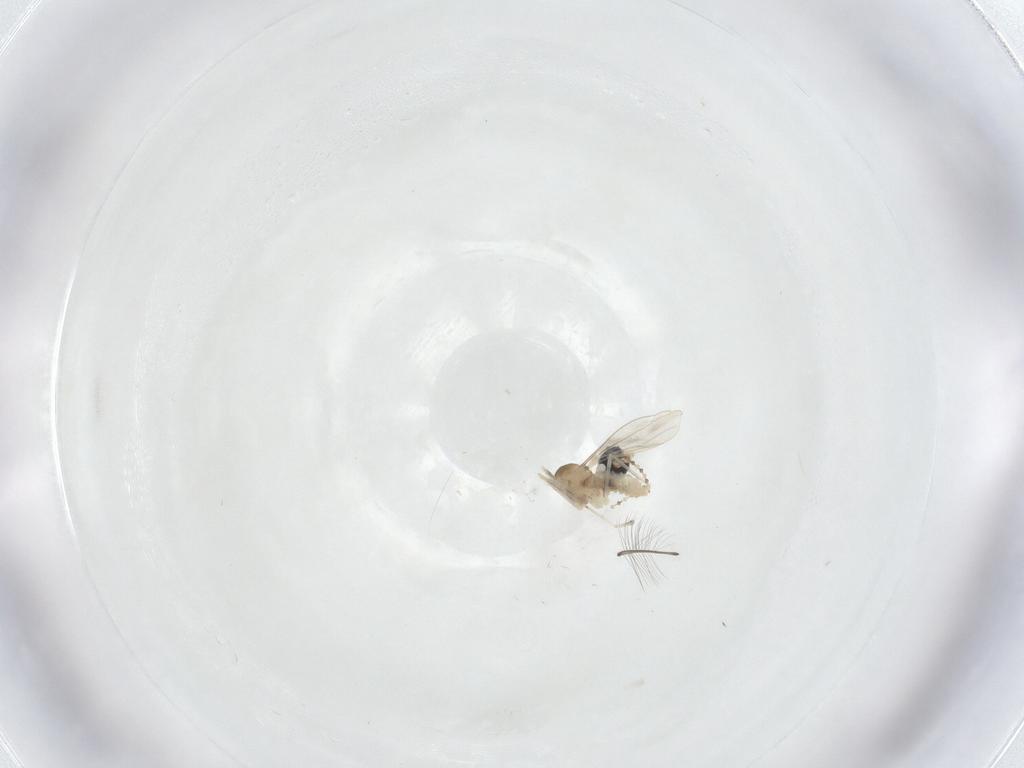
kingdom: Animalia
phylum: Arthropoda
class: Insecta
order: Diptera
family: Cecidomyiidae
